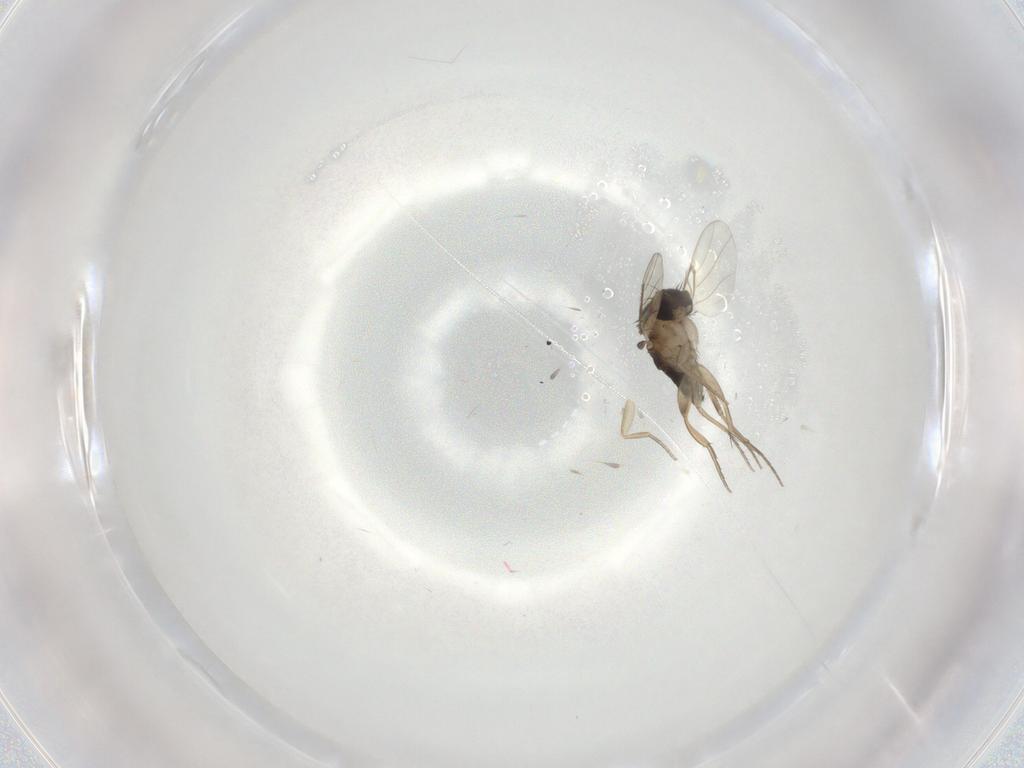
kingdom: Animalia
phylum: Arthropoda
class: Insecta
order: Diptera
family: Phoridae
